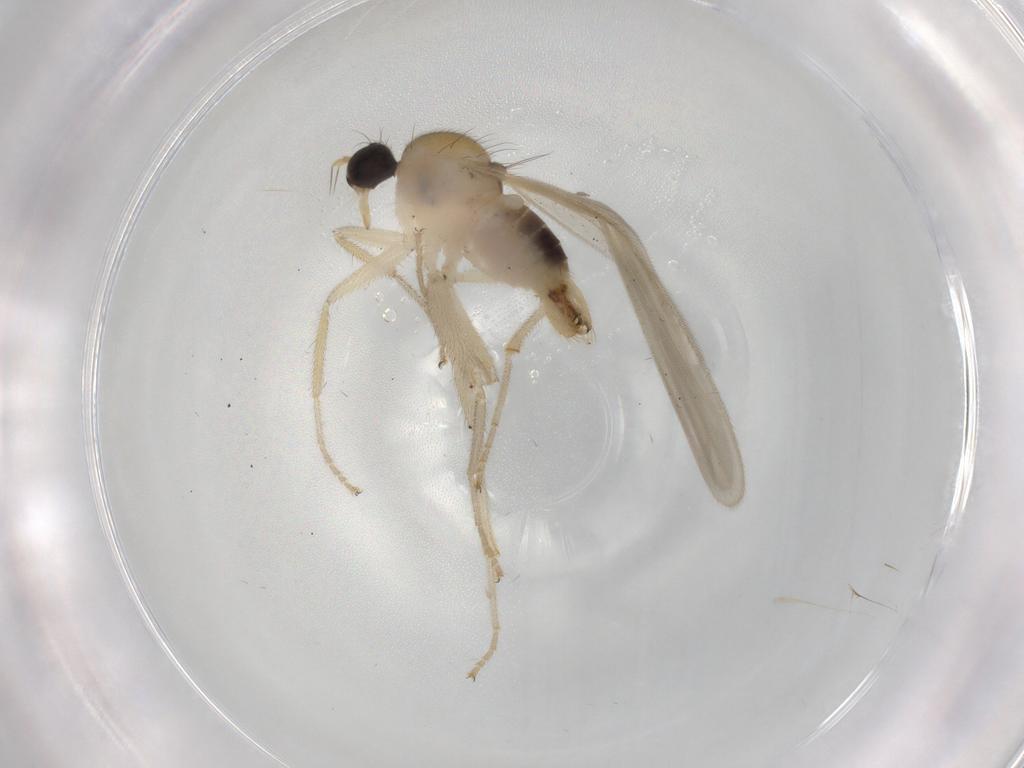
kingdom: Animalia
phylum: Arthropoda
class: Insecta
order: Diptera
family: Hybotidae
